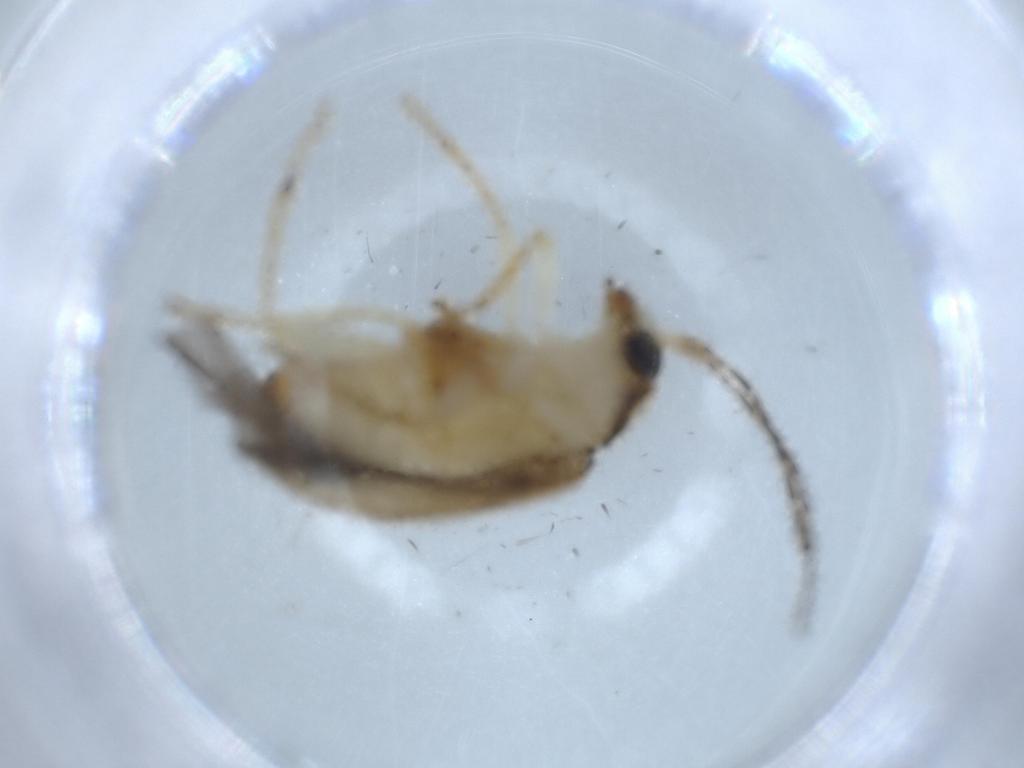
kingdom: Animalia
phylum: Arthropoda
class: Insecta
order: Coleoptera
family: Chrysomelidae
